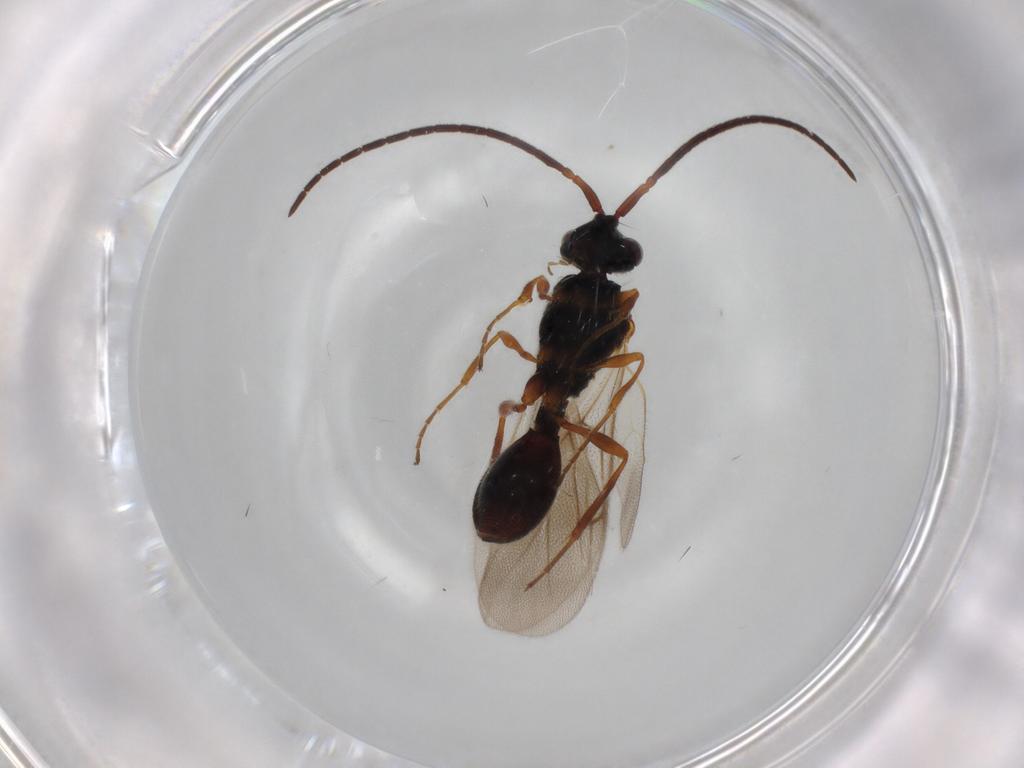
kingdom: Animalia
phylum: Arthropoda
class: Insecta
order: Hymenoptera
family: Diapriidae
